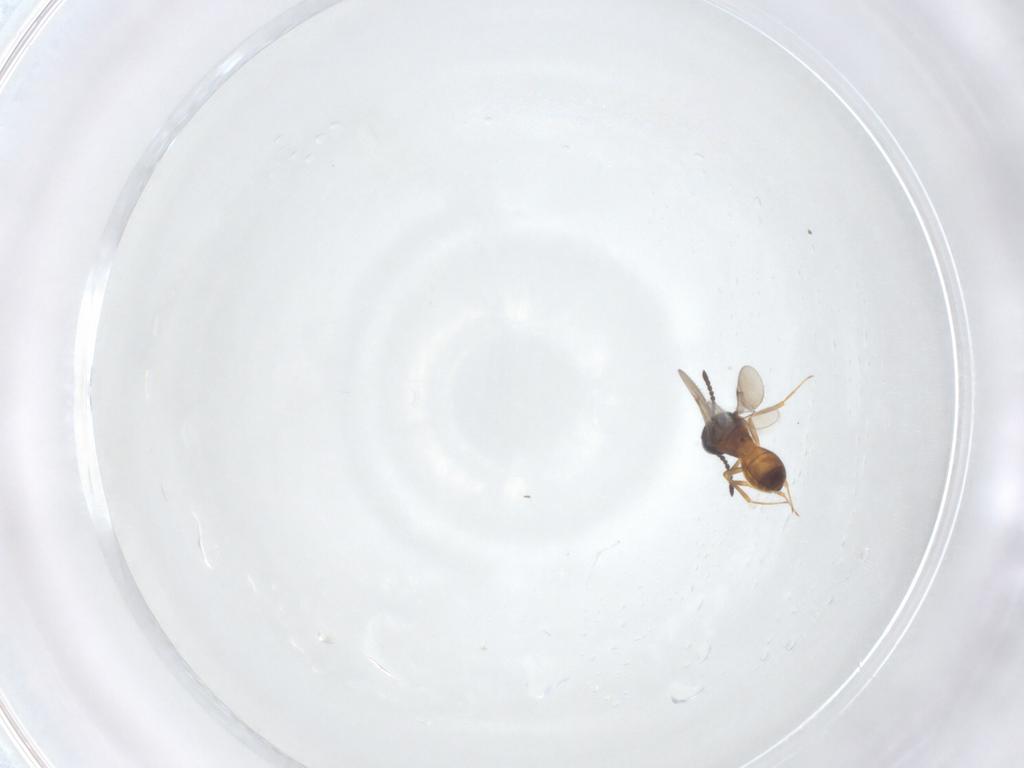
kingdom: Animalia
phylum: Arthropoda
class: Insecta
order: Hymenoptera
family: Scelionidae
